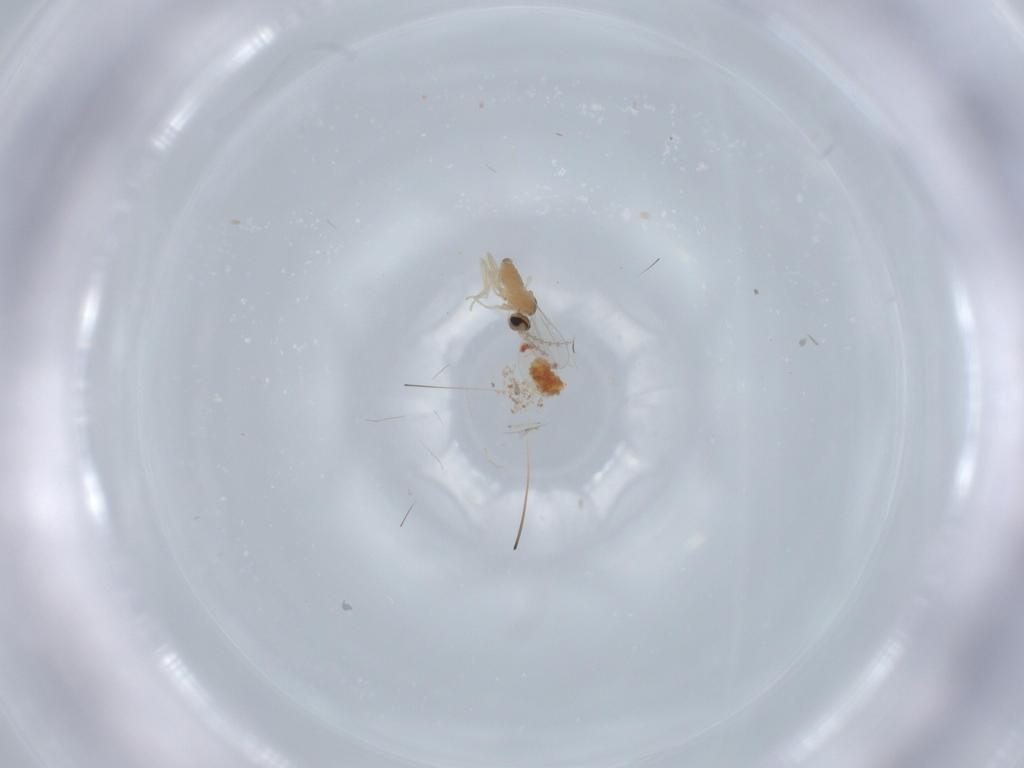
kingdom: Animalia
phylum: Arthropoda
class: Insecta
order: Diptera
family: Cecidomyiidae
